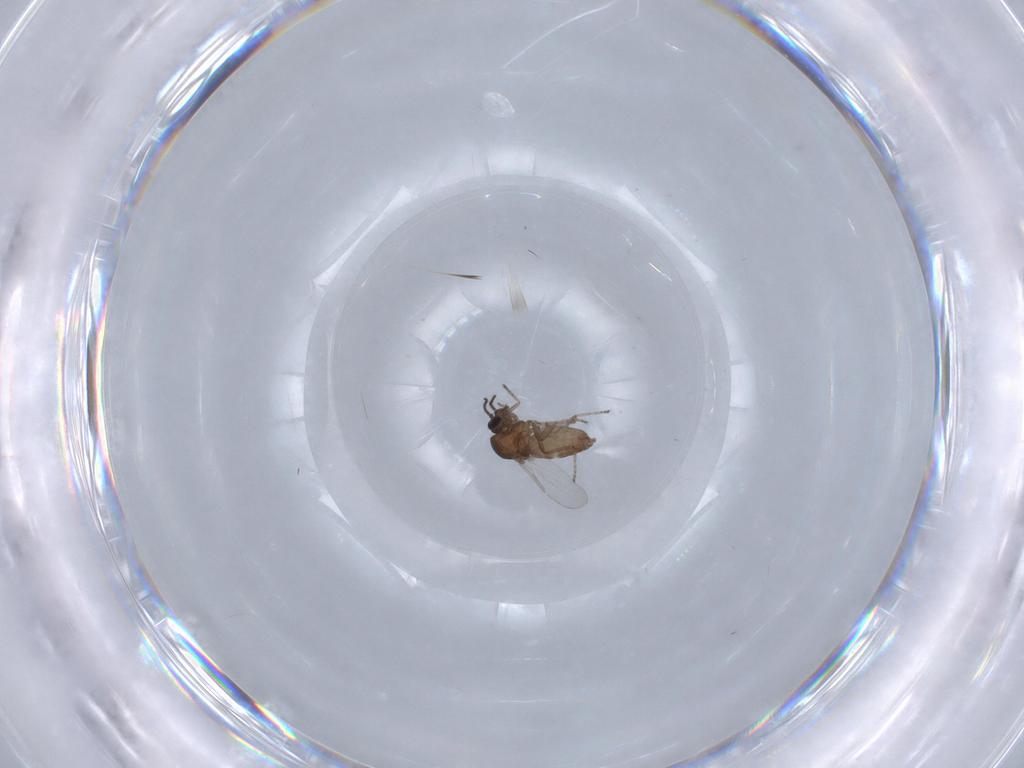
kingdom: Animalia
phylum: Arthropoda
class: Insecta
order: Diptera
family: Ceratopogonidae
